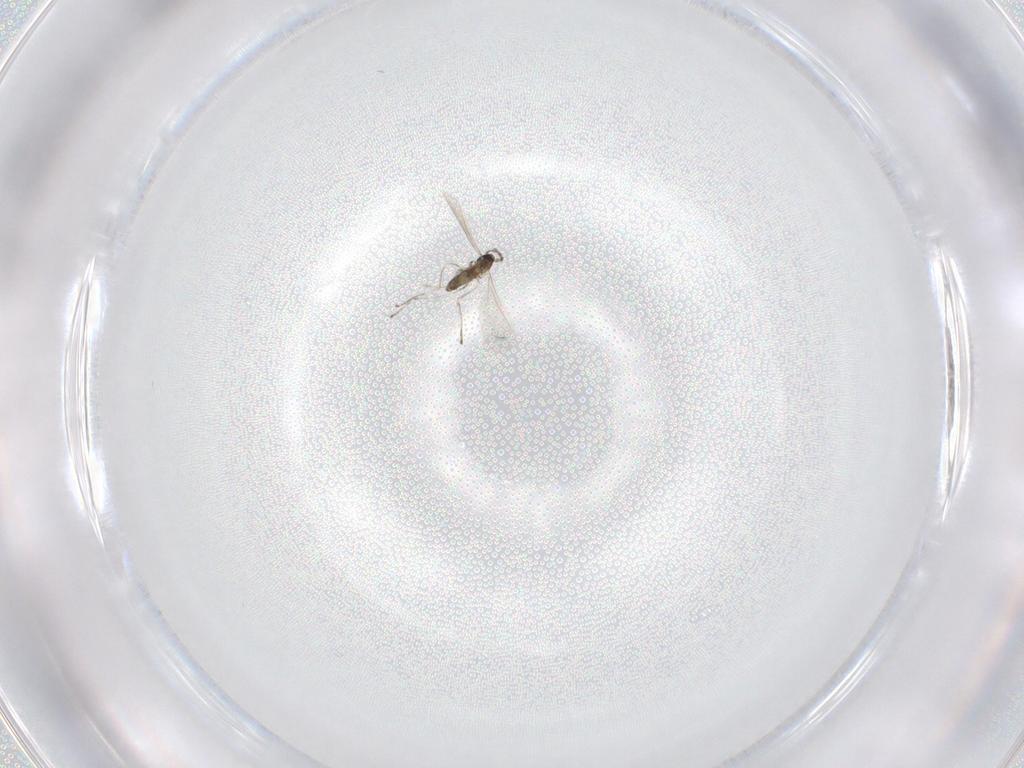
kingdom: Animalia
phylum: Arthropoda
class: Insecta
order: Diptera
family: Cecidomyiidae
